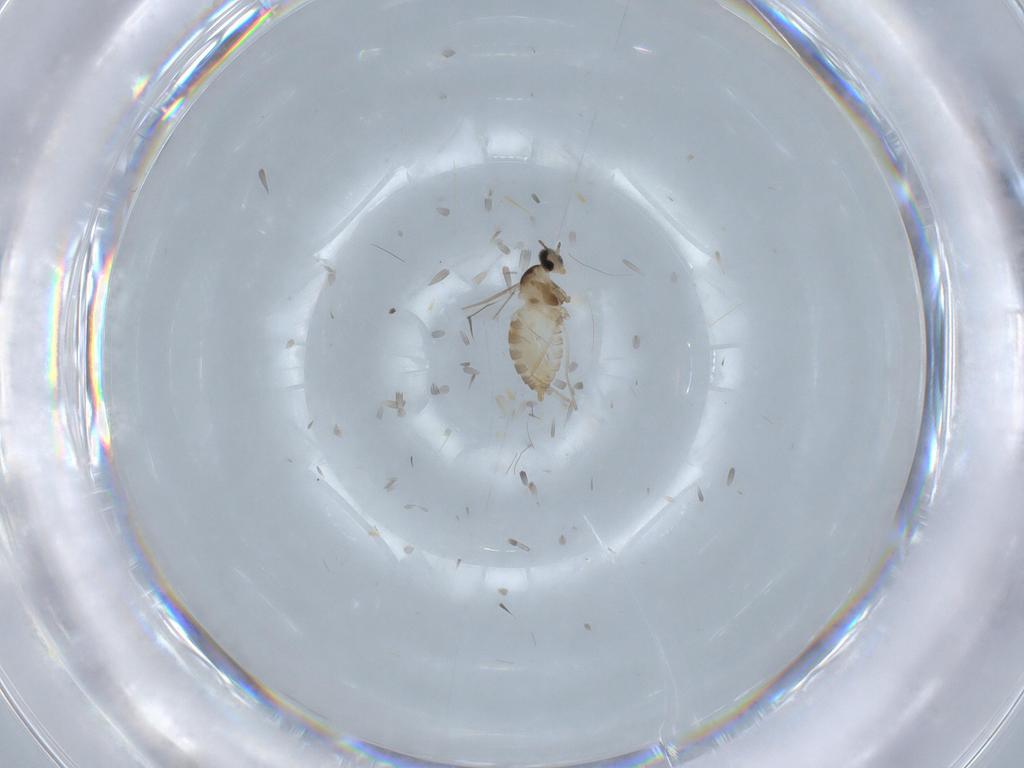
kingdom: Animalia
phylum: Arthropoda
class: Insecta
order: Diptera
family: Cecidomyiidae
